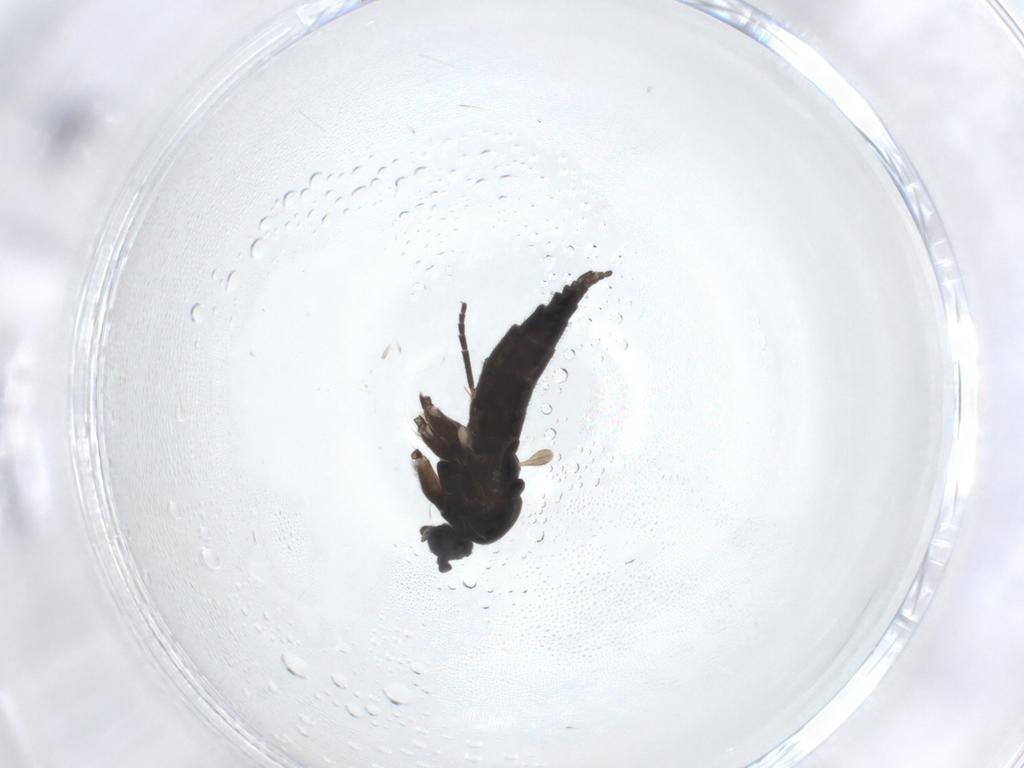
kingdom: Animalia
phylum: Arthropoda
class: Insecta
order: Diptera
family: Sciaridae
